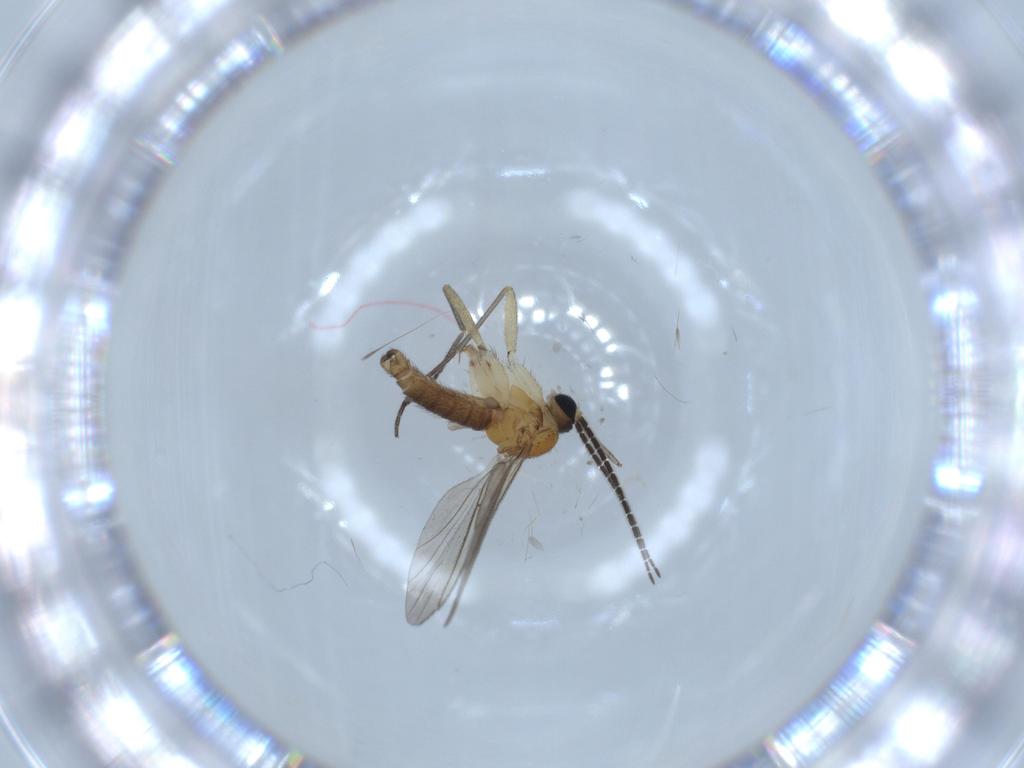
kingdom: Animalia
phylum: Arthropoda
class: Insecta
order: Diptera
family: Sciaridae
